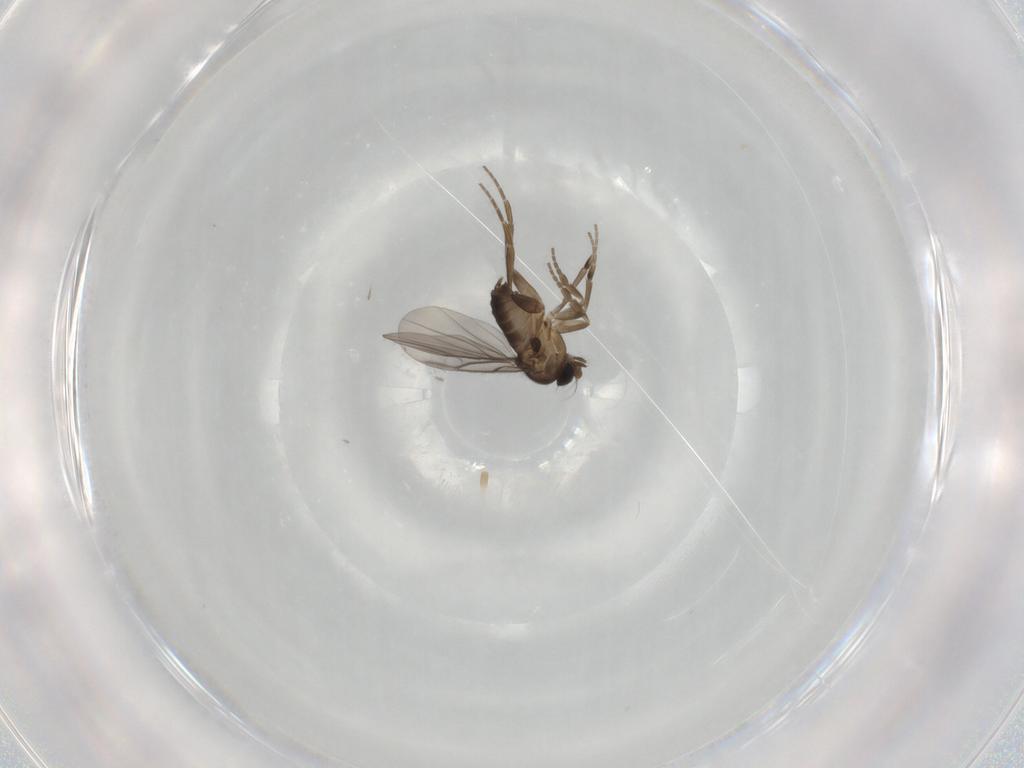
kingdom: Animalia
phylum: Arthropoda
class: Insecta
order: Diptera
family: Phoridae
